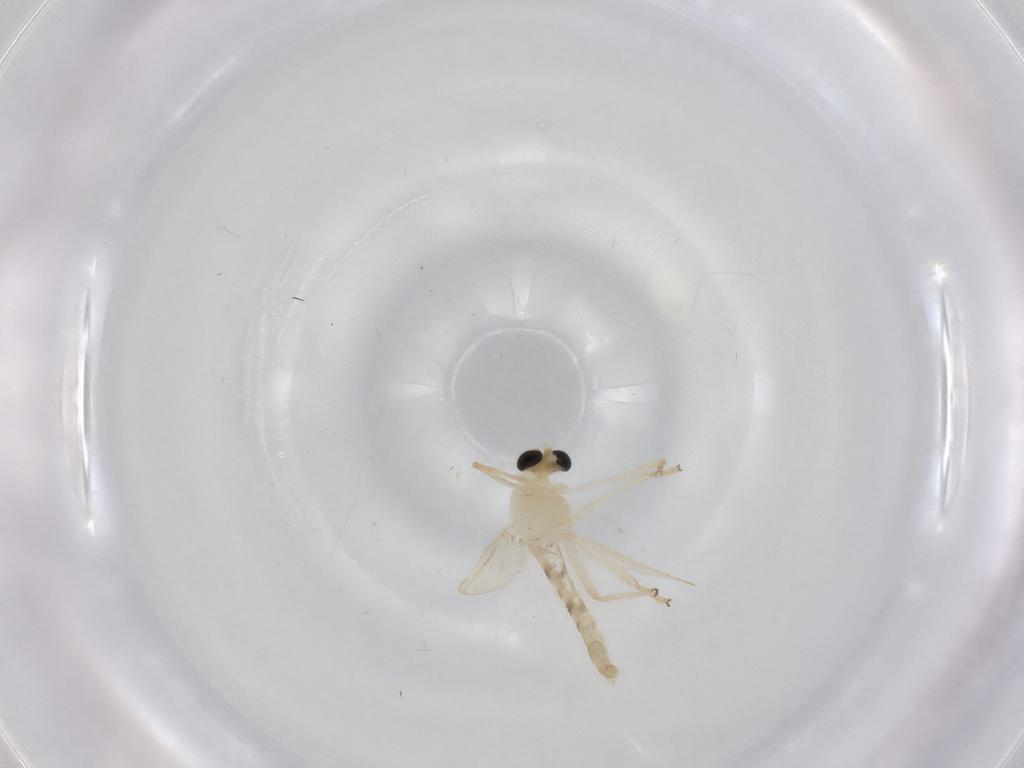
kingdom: Animalia
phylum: Arthropoda
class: Insecta
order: Diptera
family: Chironomidae
